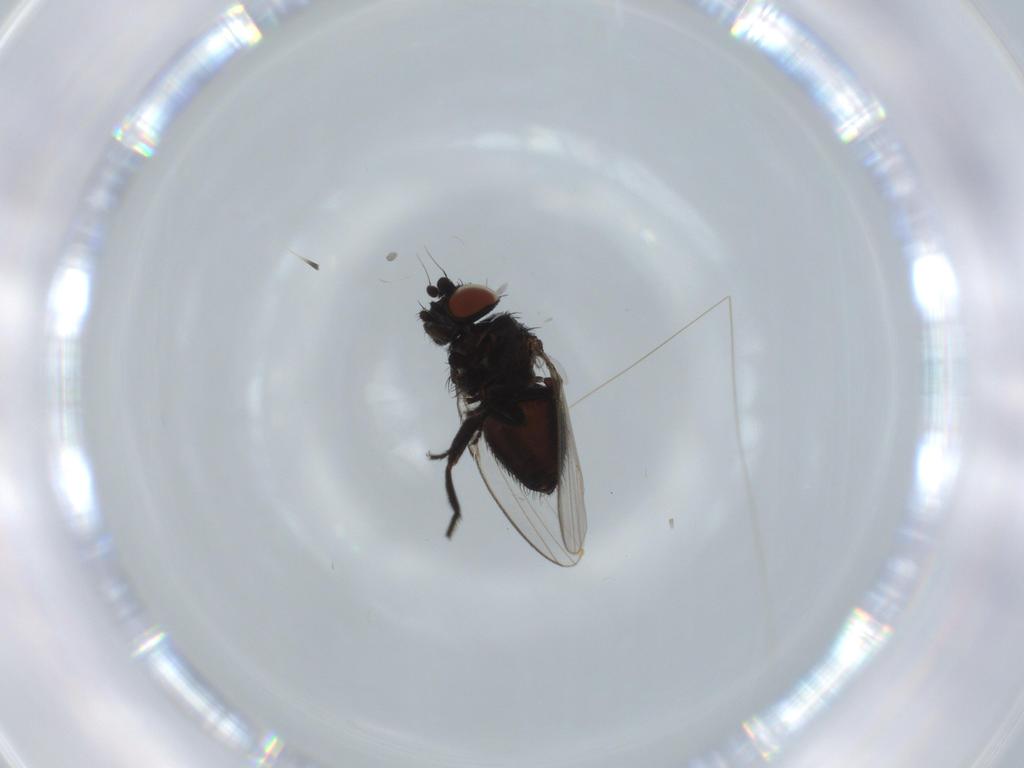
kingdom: Animalia
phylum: Arthropoda
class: Insecta
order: Diptera
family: Milichiidae
